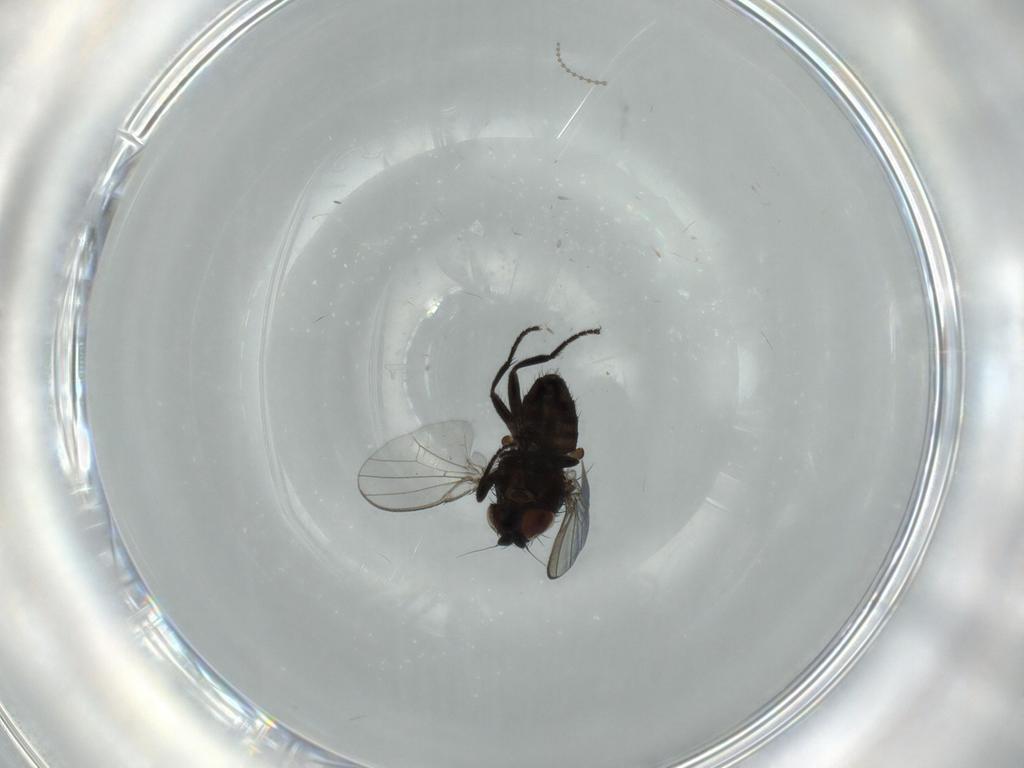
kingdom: Animalia
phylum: Arthropoda
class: Insecta
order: Diptera
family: Milichiidae
